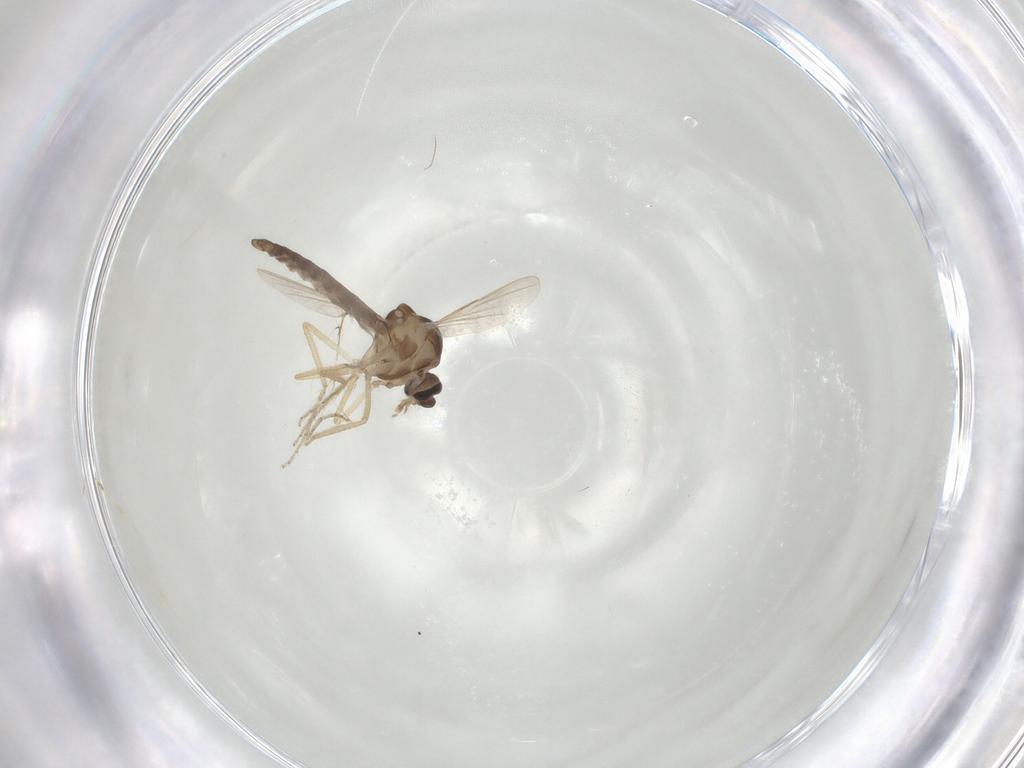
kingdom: Animalia
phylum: Arthropoda
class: Insecta
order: Diptera
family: Ceratopogonidae
